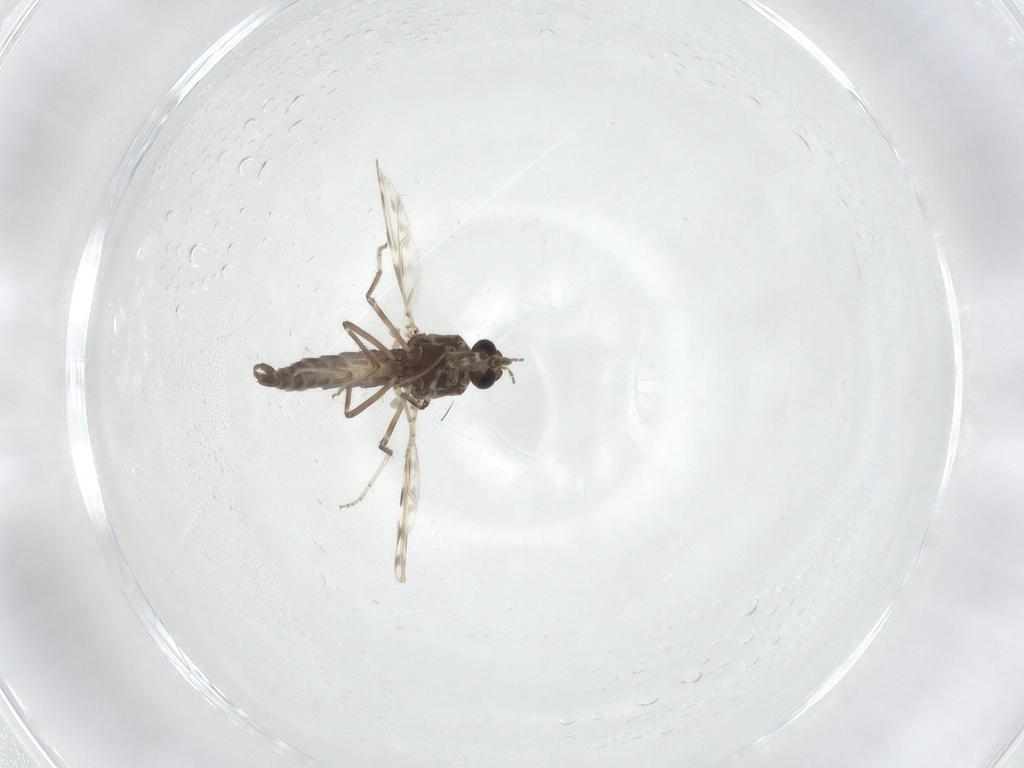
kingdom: Animalia
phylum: Arthropoda
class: Insecta
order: Diptera
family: Ceratopogonidae
